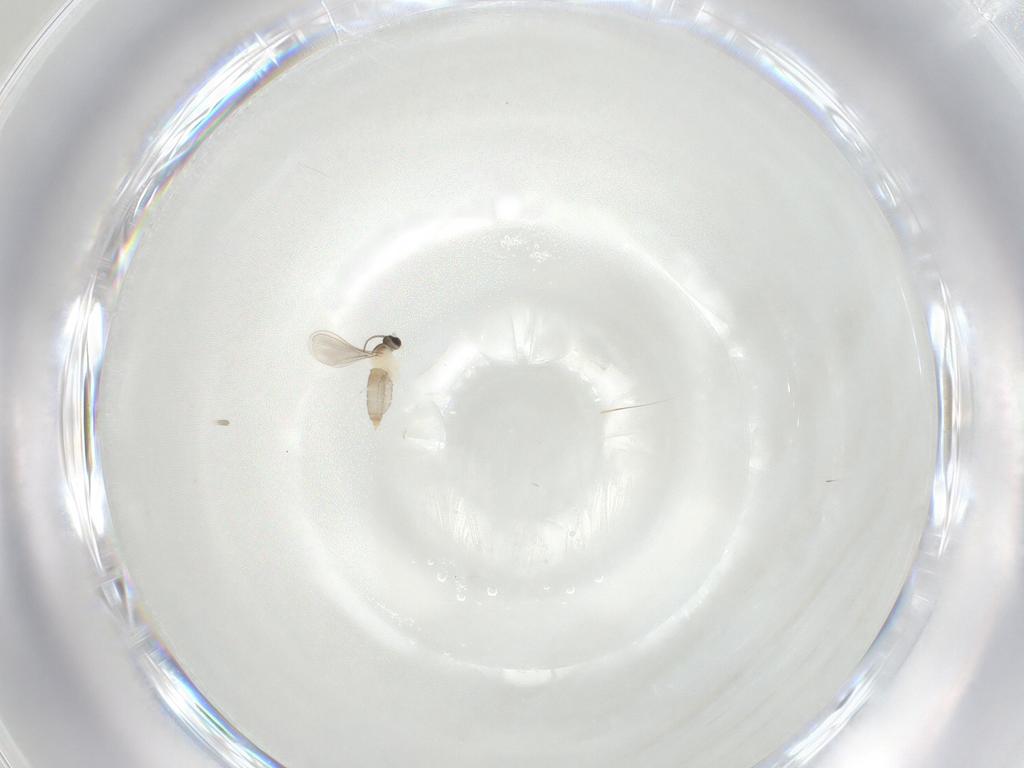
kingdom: Animalia
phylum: Arthropoda
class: Insecta
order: Diptera
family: Cecidomyiidae
